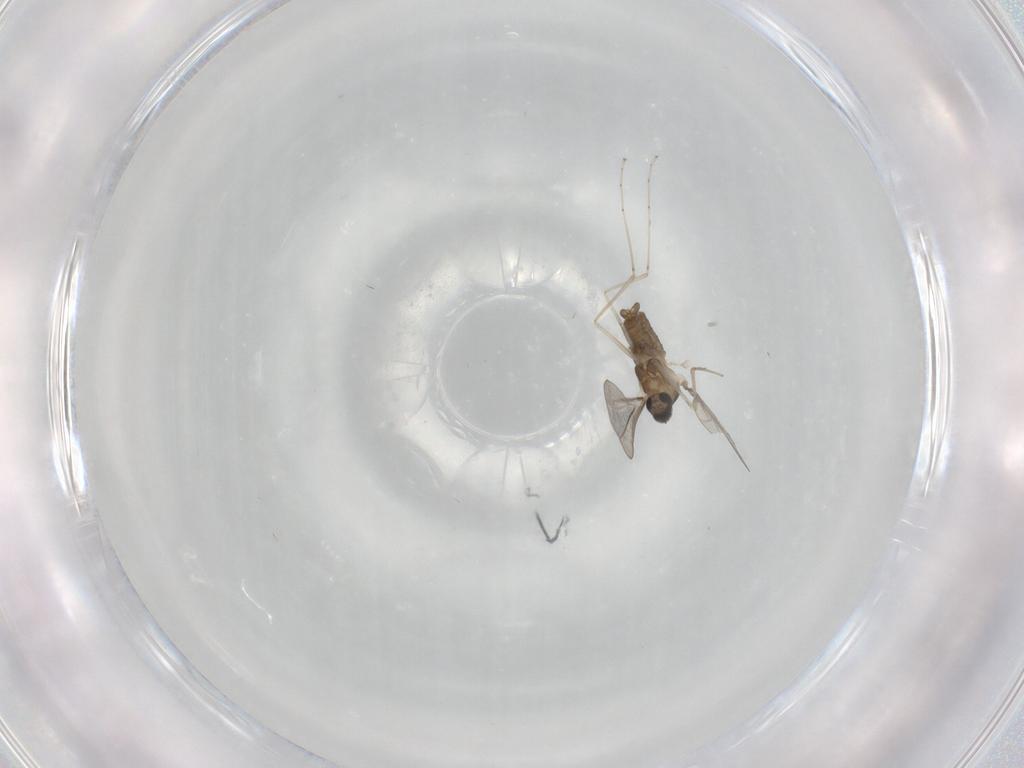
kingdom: Animalia
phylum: Arthropoda
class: Insecta
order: Diptera
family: Cecidomyiidae
